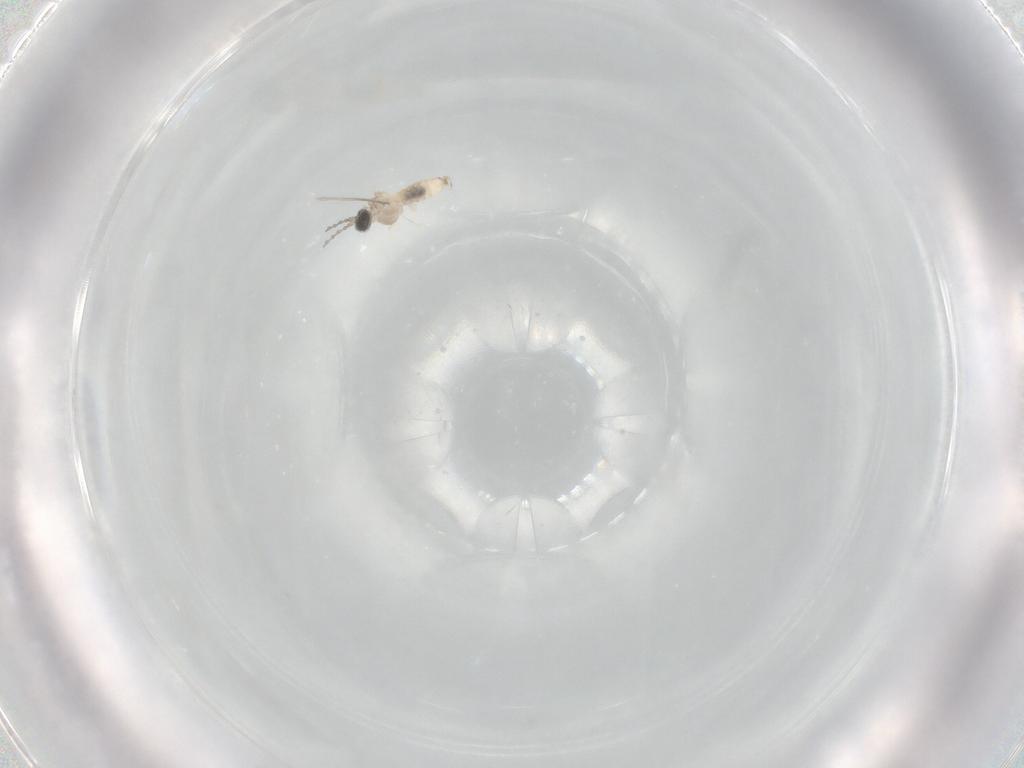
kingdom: Animalia
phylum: Arthropoda
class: Insecta
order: Diptera
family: Cecidomyiidae
